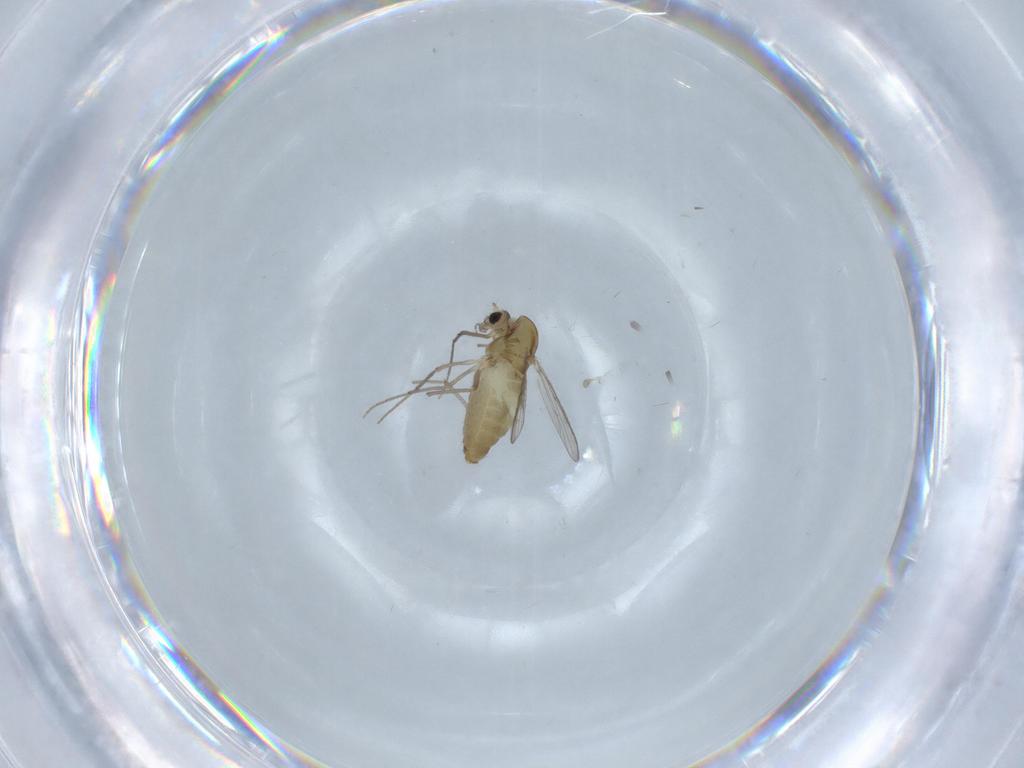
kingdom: Animalia
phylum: Arthropoda
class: Insecta
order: Diptera
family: Chironomidae
